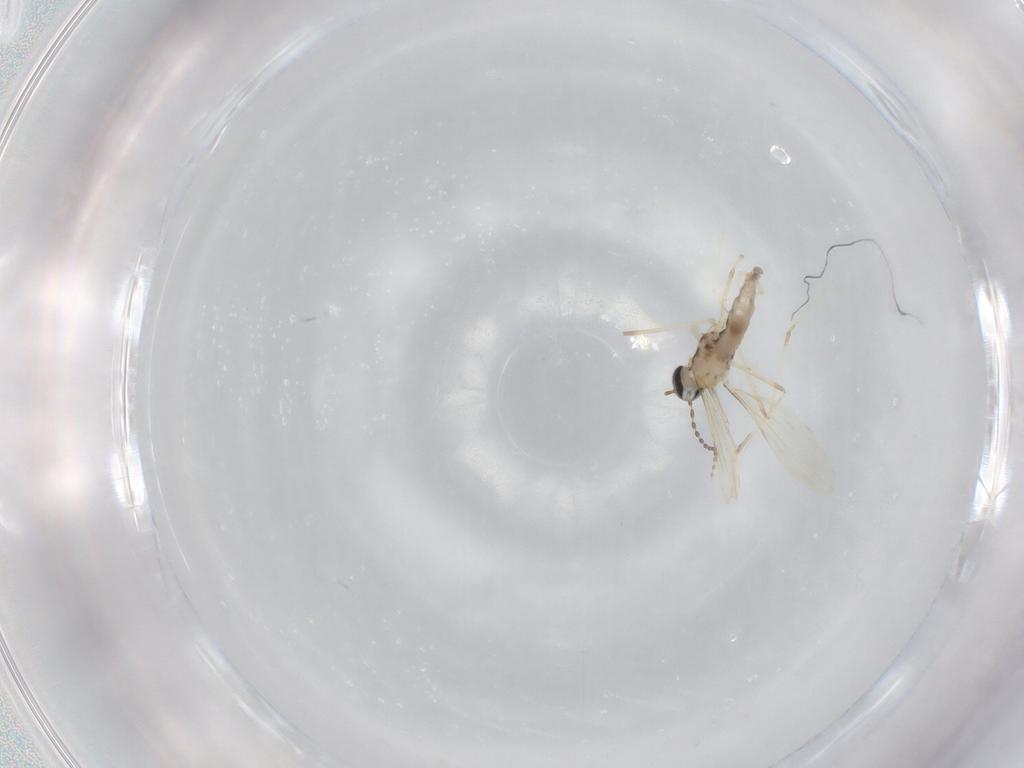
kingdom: Animalia
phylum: Arthropoda
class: Insecta
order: Diptera
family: Cecidomyiidae
